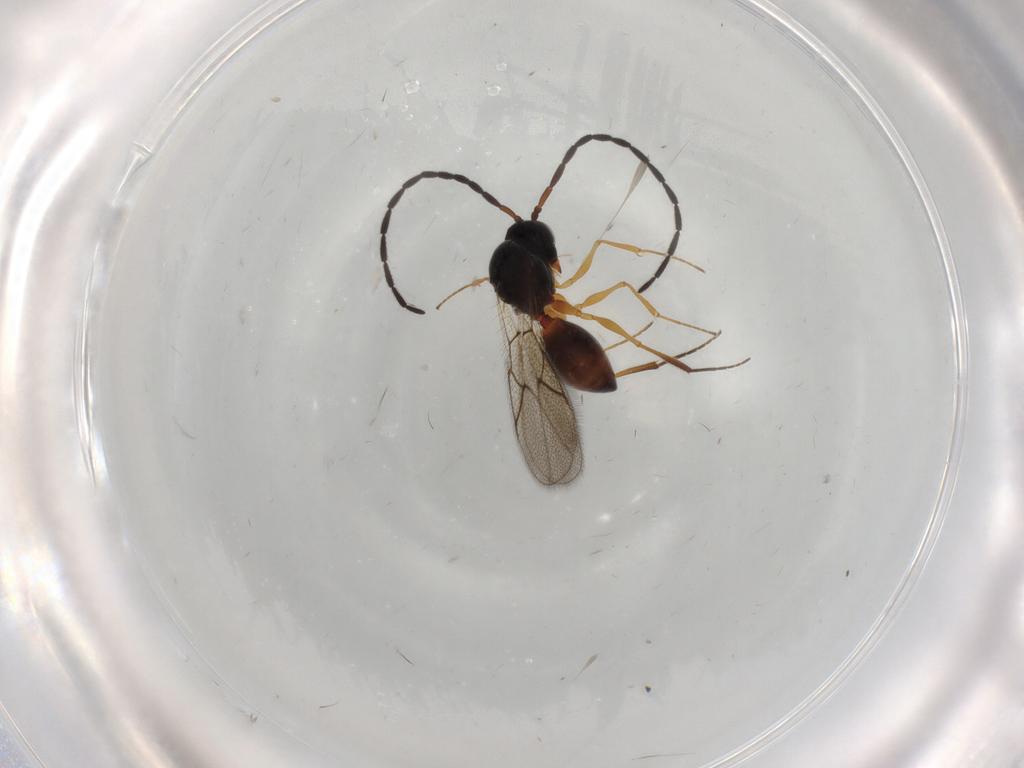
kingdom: Animalia
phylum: Arthropoda
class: Insecta
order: Hymenoptera
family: Figitidae
